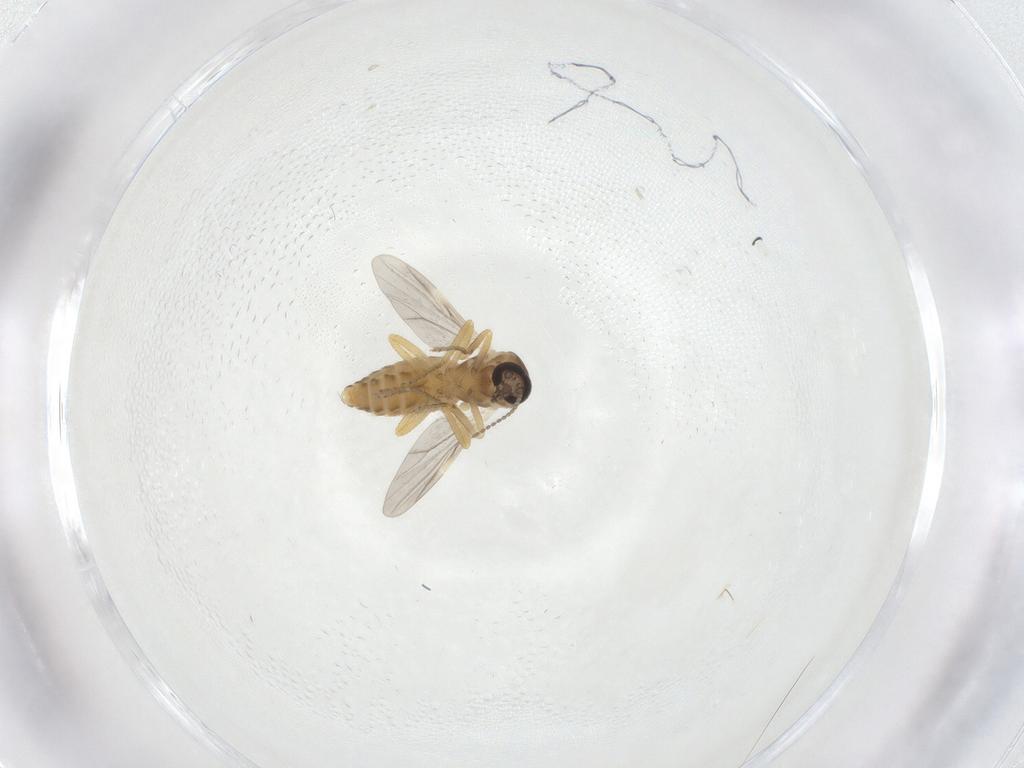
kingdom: Animalia
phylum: Arthropoda
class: Insecta
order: Diptera
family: Ceratopogonidae
